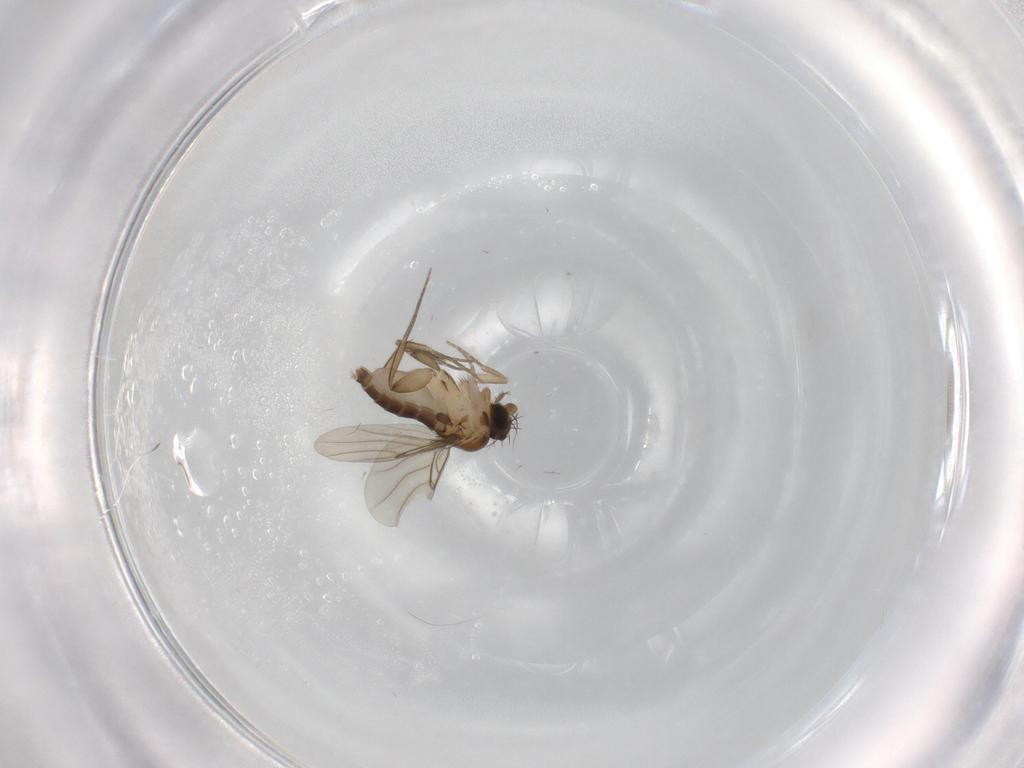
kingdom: Animalia
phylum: Arthropoda
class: Insecta
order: Diptera
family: Phoridae
